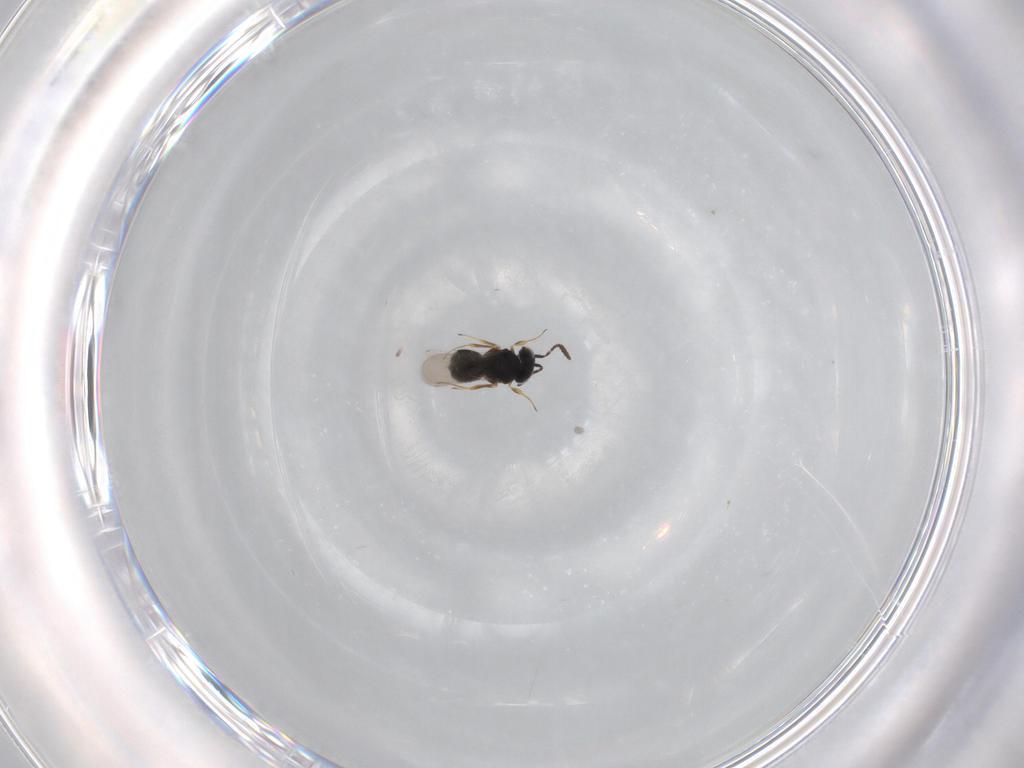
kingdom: Animalia
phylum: Arthropoda
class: Insecta
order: Hymenoptera
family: Scelionidae
